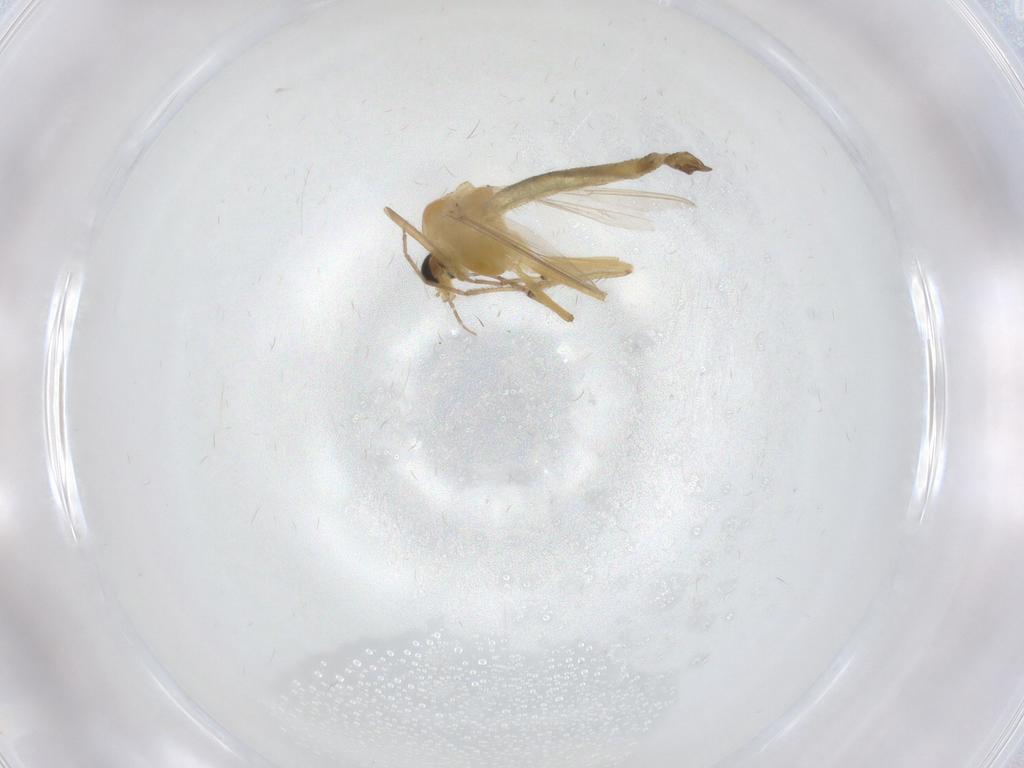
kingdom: Animalia
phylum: Arthropoda
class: Insecta
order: Diptera
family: Chironomidae
